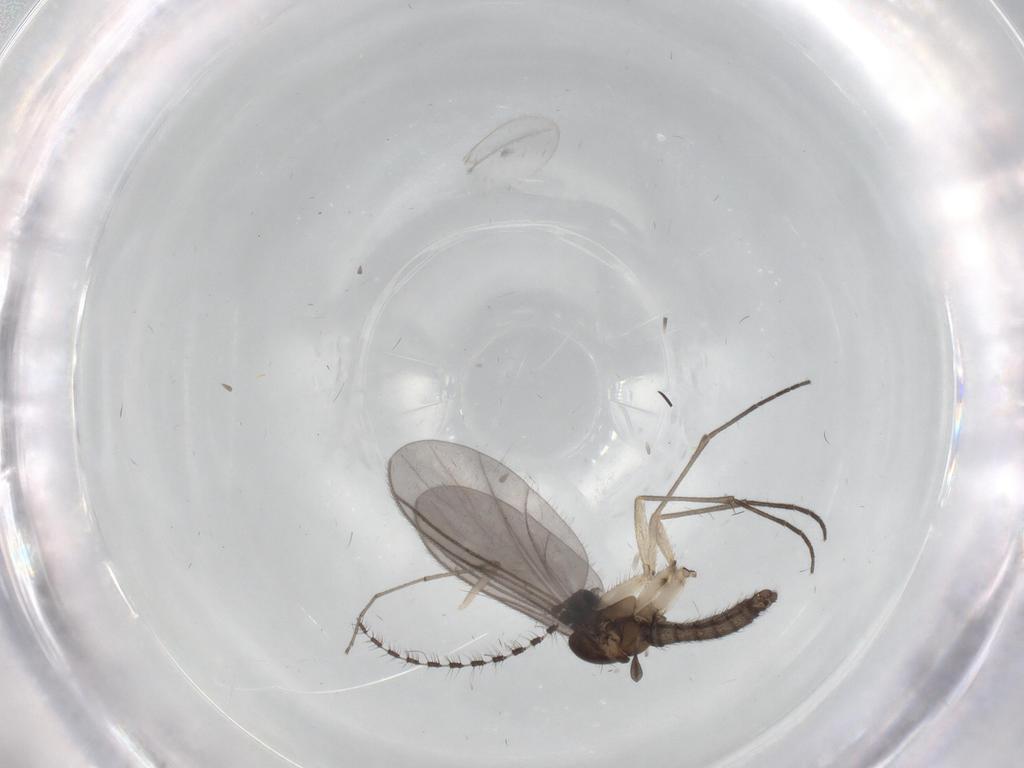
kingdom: Animalia
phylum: Arthropoda
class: Insecta
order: Diptera
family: Sciaridae
